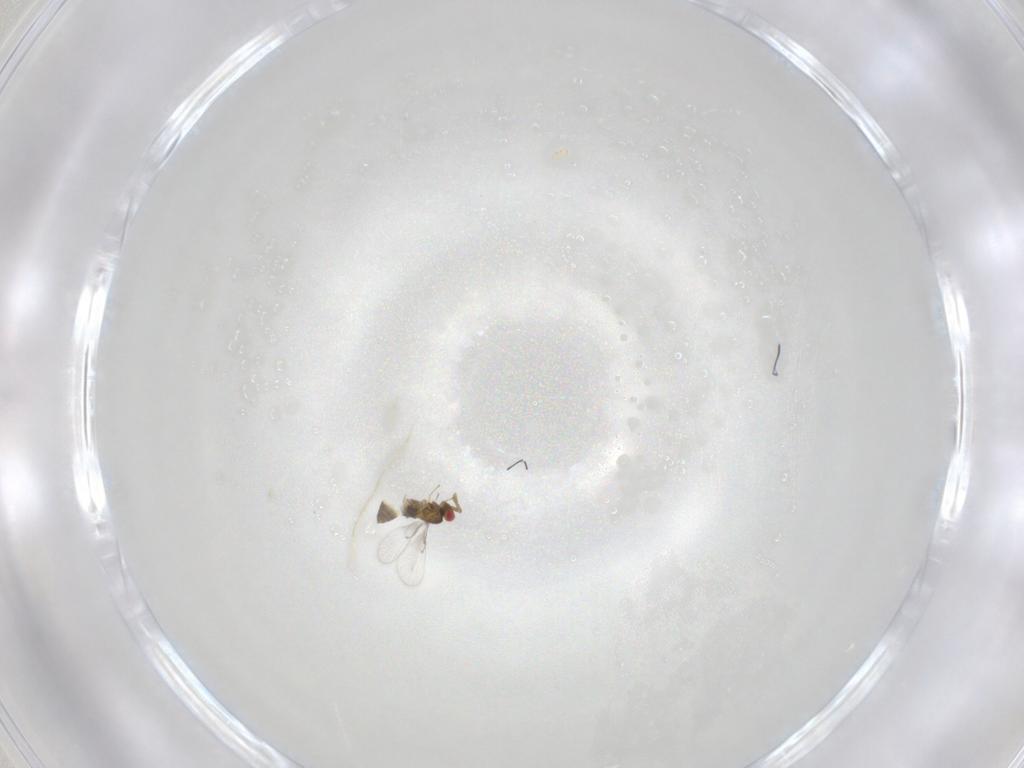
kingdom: Animalia
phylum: Arthropoda
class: Insecta
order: Hymenoptera
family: Trichogrammatidae
